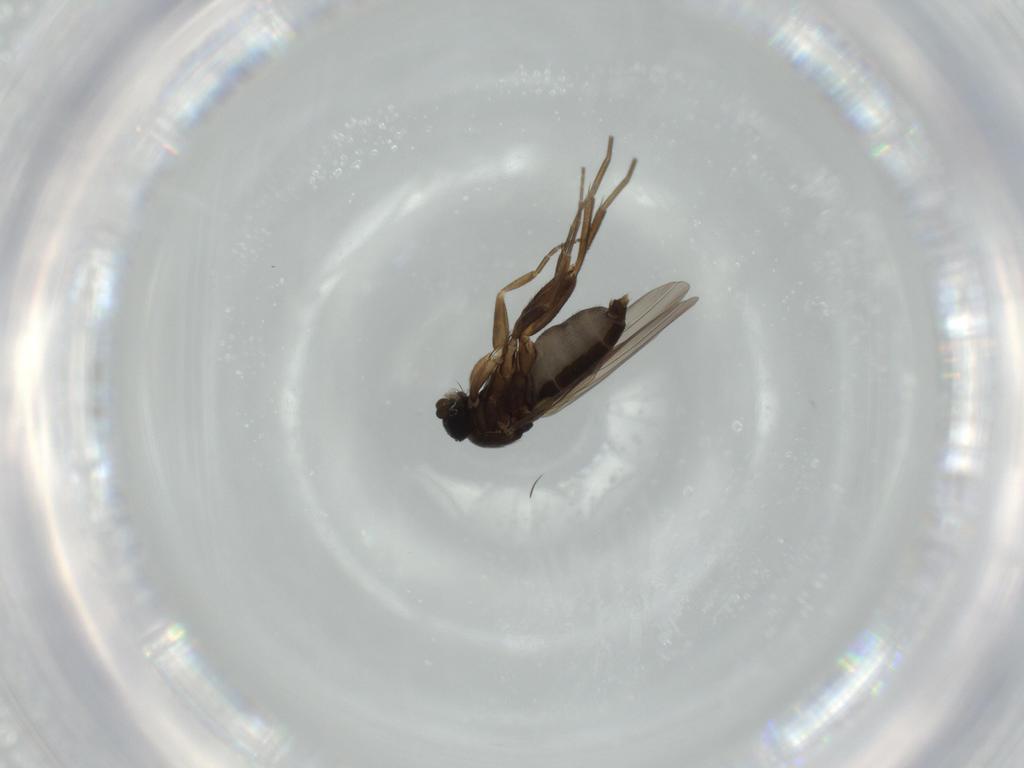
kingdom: Animalia
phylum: Arthropoda
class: Insecta
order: Diptera
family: Phoridae
